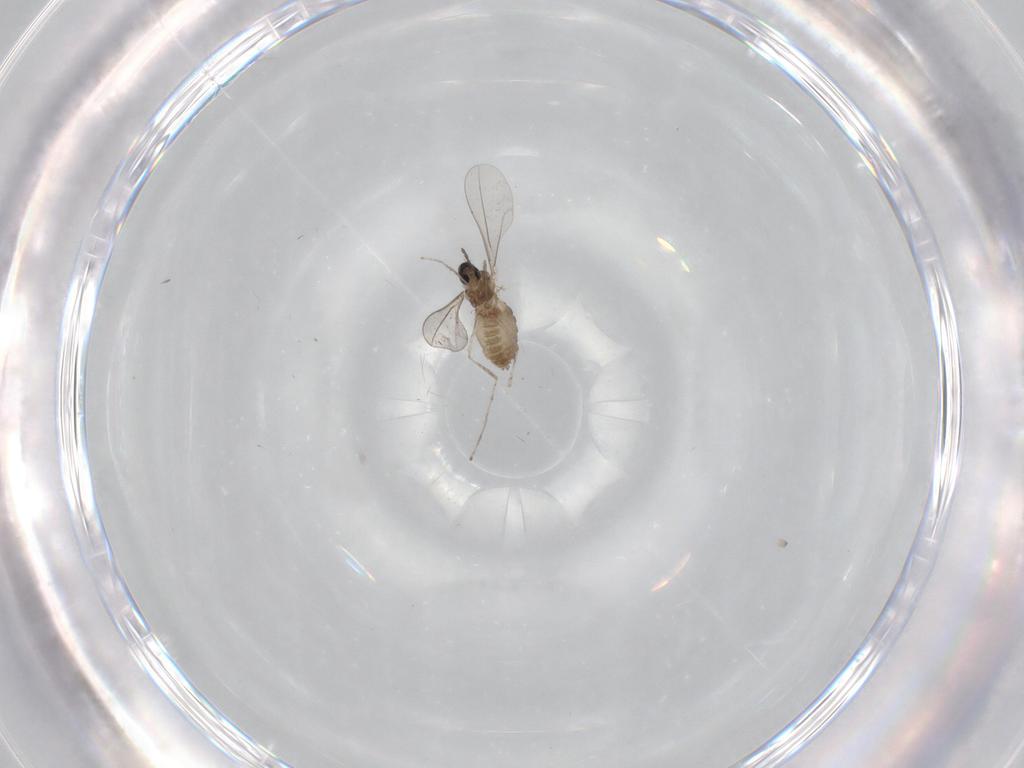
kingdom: Animalia
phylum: Arthropoda
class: Insecta
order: Diptera
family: Cecidomyiidae
